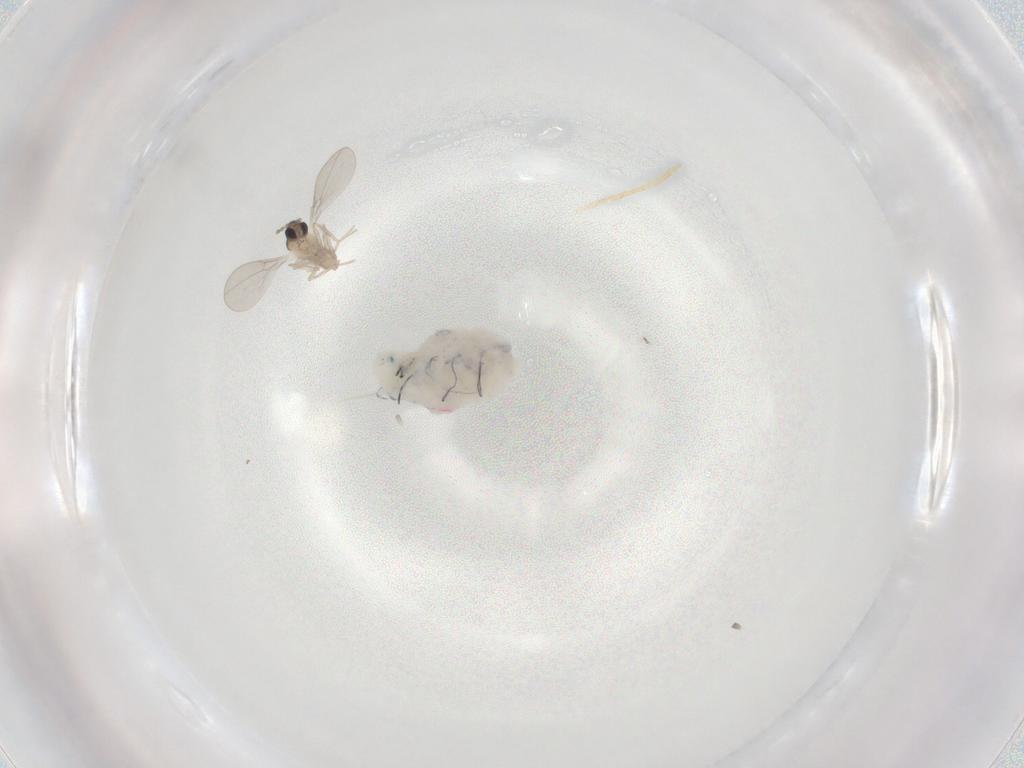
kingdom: Animalia
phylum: Arthropoda
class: Insecta
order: Diptera
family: Cecidomyiidae
